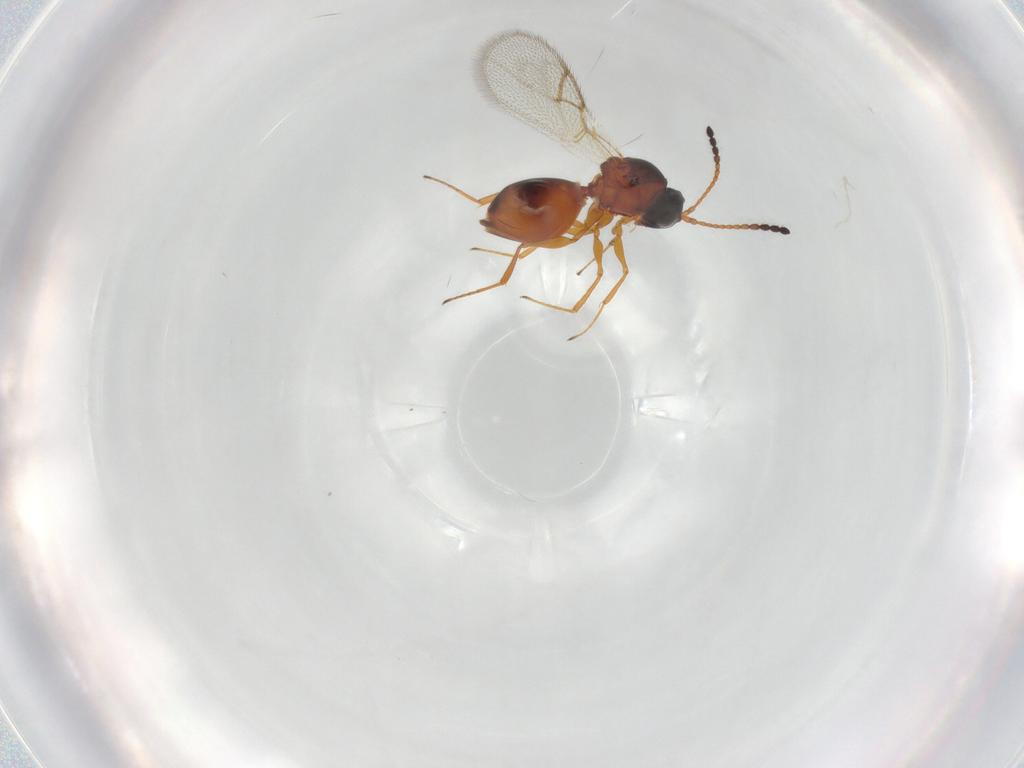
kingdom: Animalia
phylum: Arthropoda
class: Insecta
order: Hymenoptera
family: Figitidae
